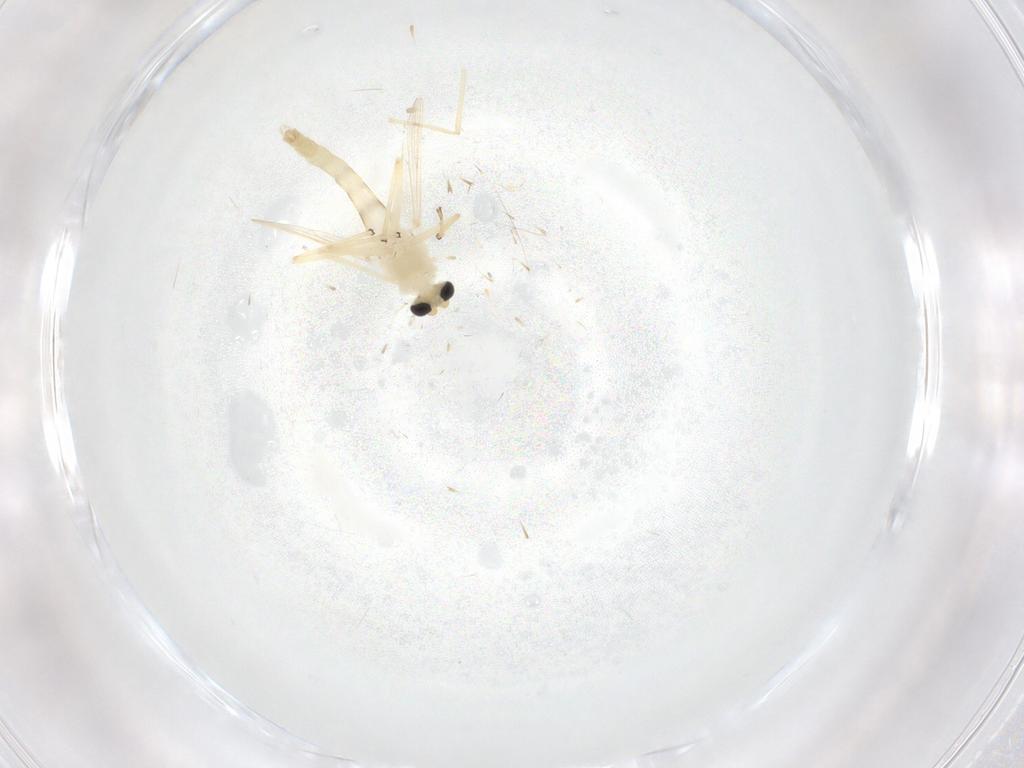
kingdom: Animalia
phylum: Arthropoda
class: Insecta
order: Diptera
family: Chironomidae
